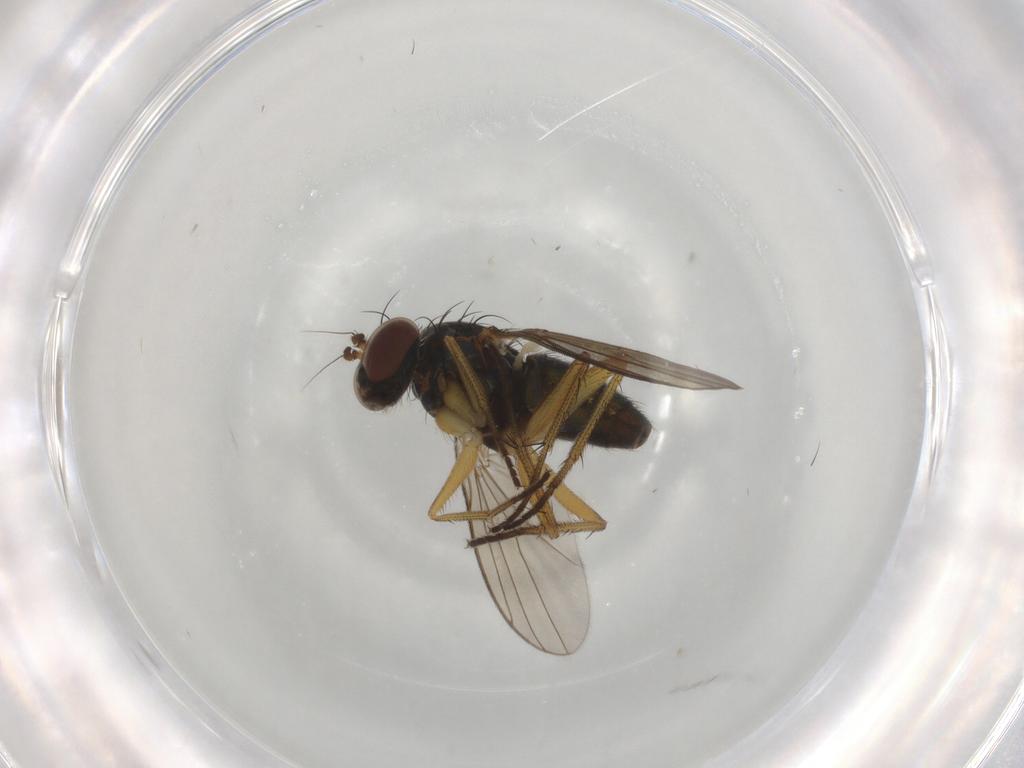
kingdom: Animalia
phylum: Arthropoda
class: Insecta
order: Diptera
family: Dolichopodidae
